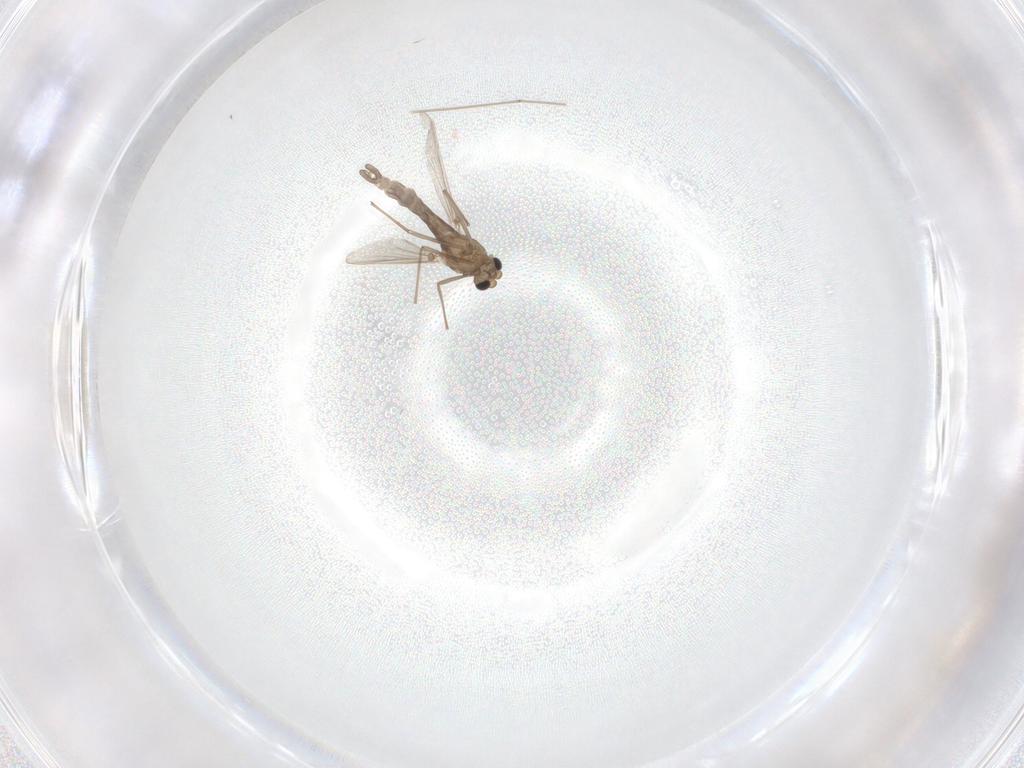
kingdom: Animalia
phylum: Arthropoda
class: Insecta
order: Diptera
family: Chironomidae
